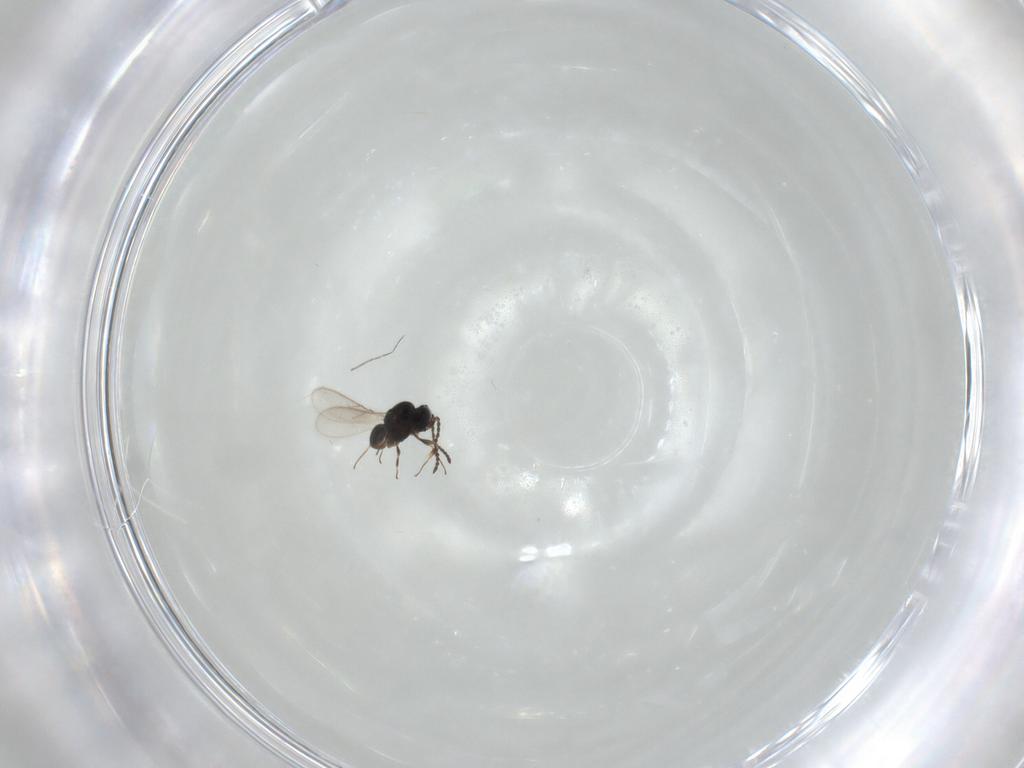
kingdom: Animalia
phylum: Arthropoda
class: Insecta
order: Hymenoptera
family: Scelionidae
